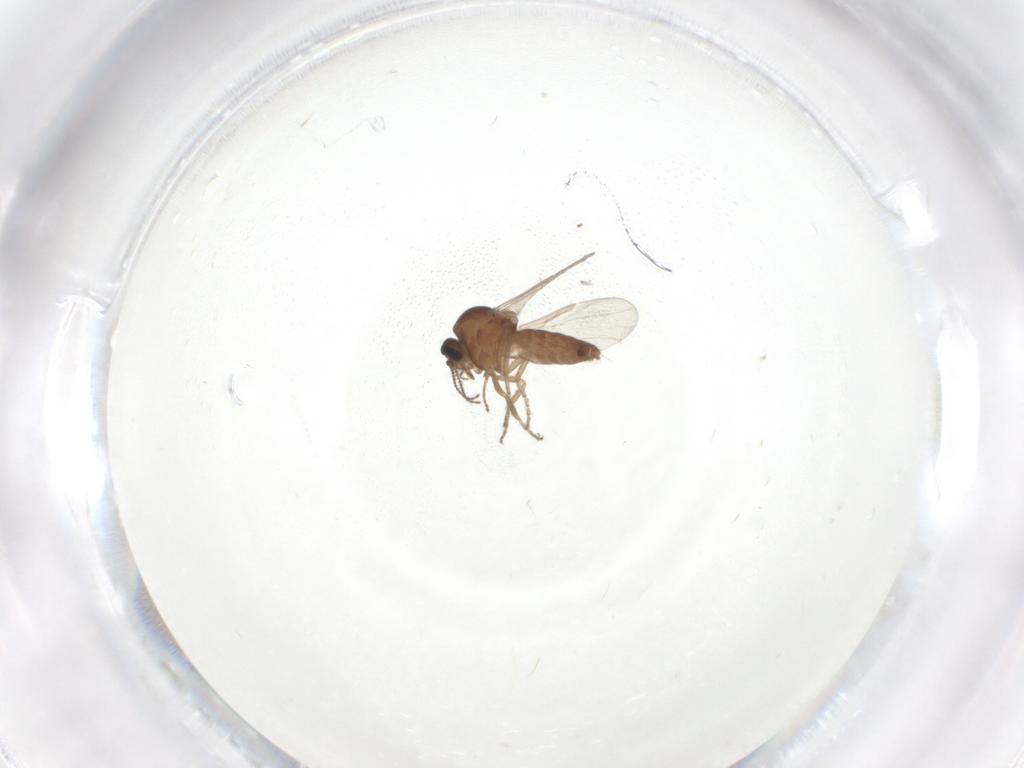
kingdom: Animalia
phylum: Arthropoda
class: Insecta
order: Diptera
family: Ceratopogonidae
